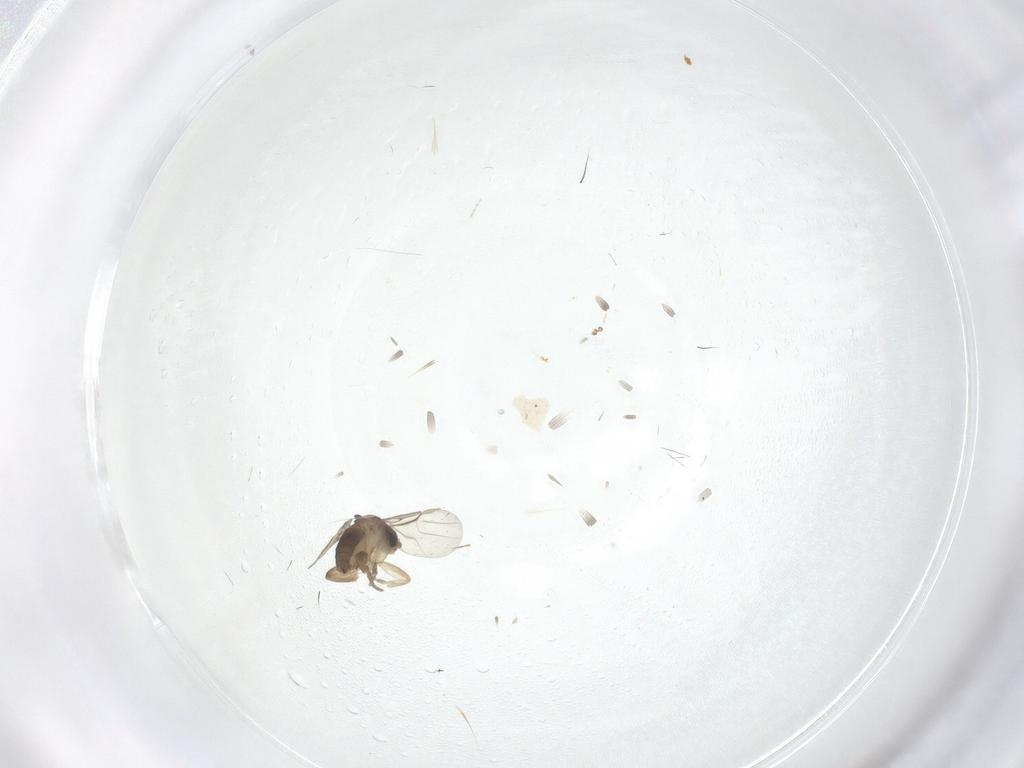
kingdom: Animalia
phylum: Arthropoda
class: Insecta
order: Diptera
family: Phoridae
